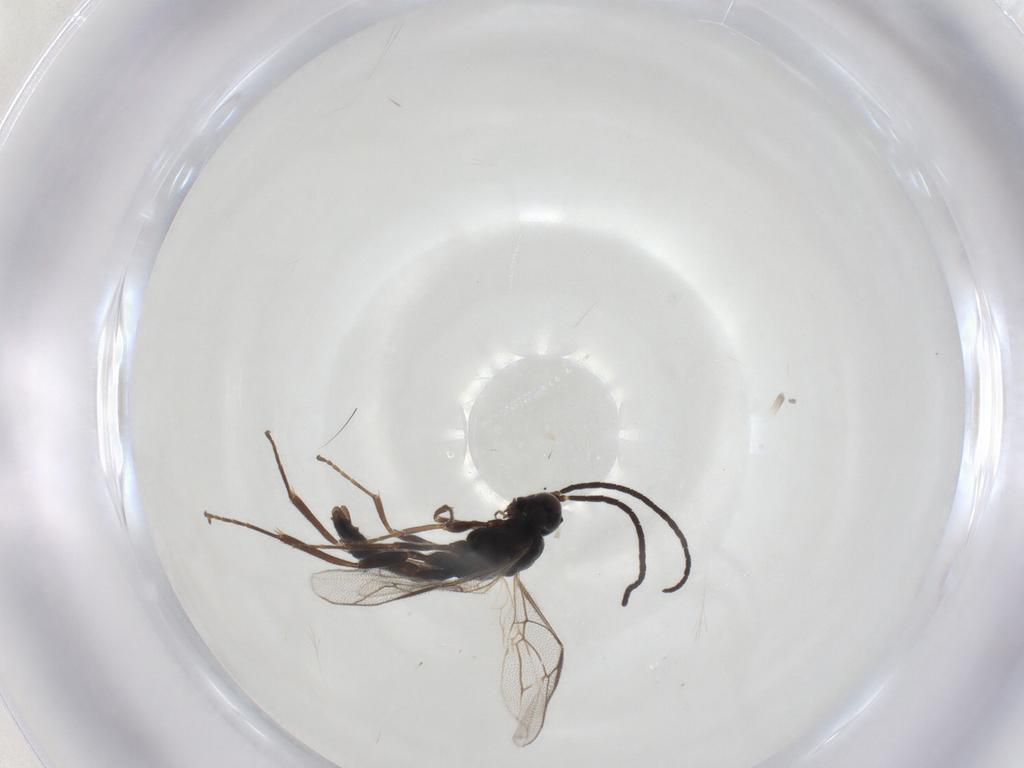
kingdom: Animalia
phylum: Arthropoda
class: Insecta
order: Hymenoptera
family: Ichneumonidae
